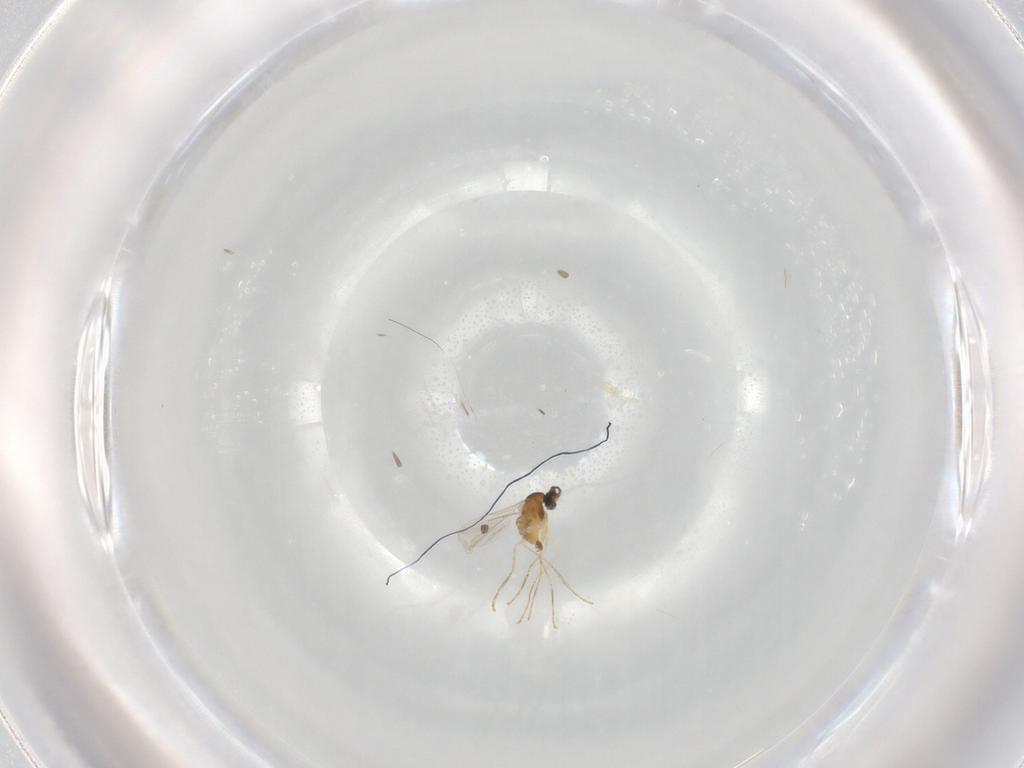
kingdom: Animalia
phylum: Arthropoda
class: Insecta
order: Diptera
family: Cecidomyiidae
